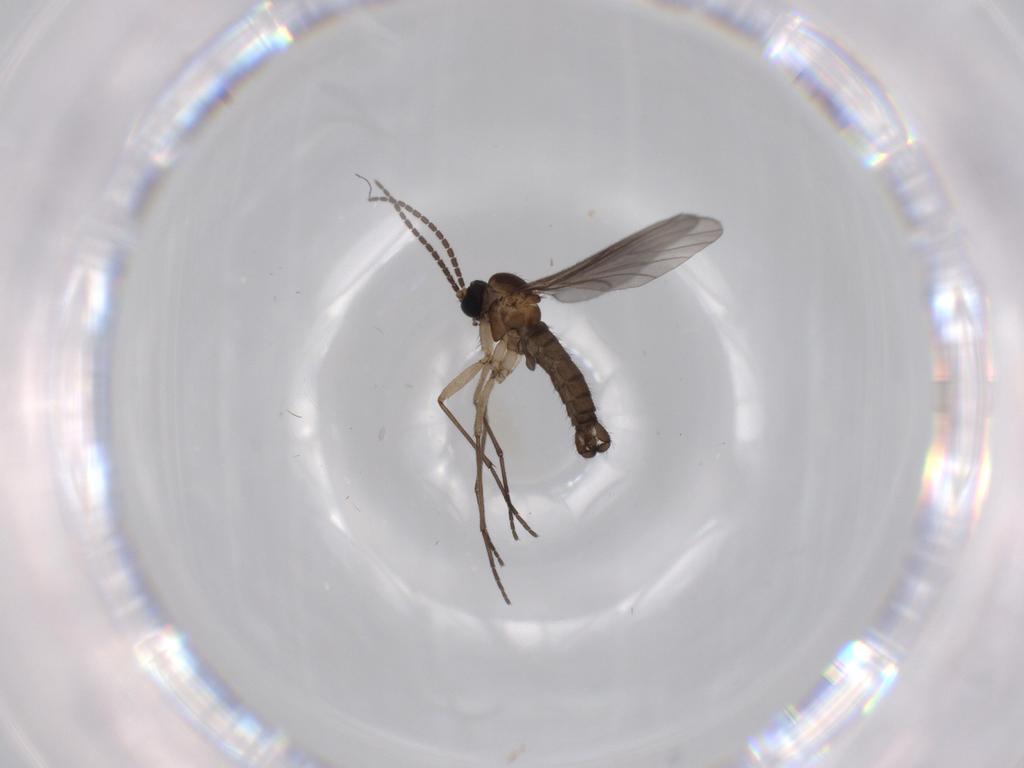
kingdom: Animalia
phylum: Arthropoda
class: Insecta
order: Diptera
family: Sciaridae
